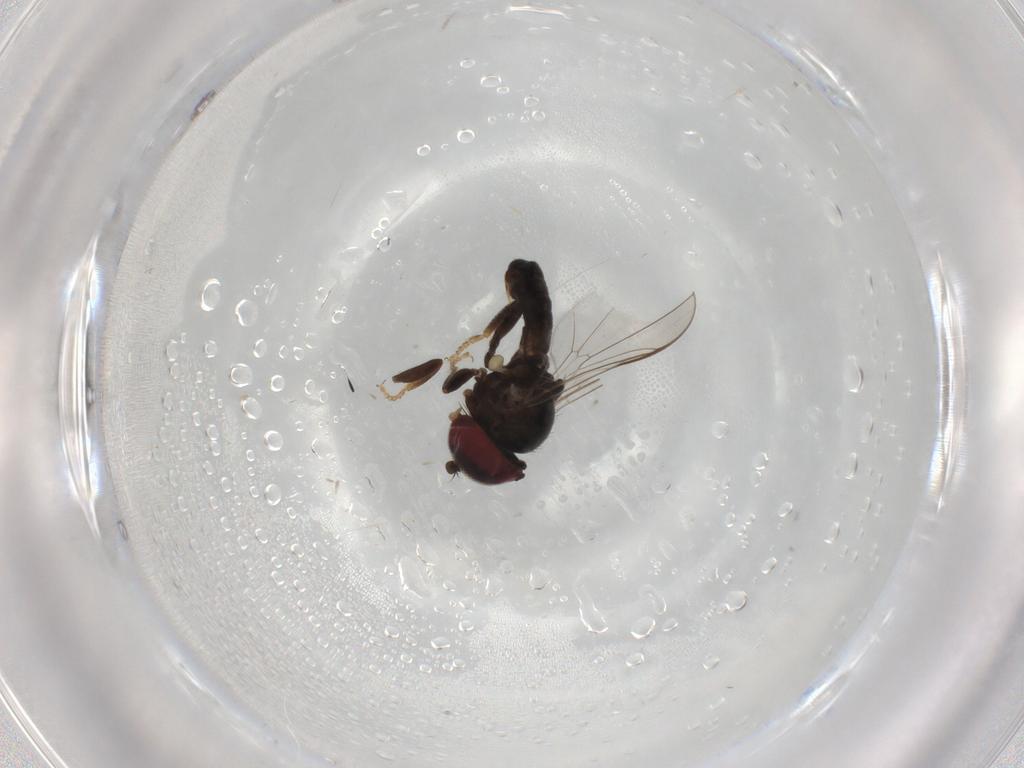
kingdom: Animalia
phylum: Arthropoda
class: Insecta
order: Diptera
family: Pipunculidae
